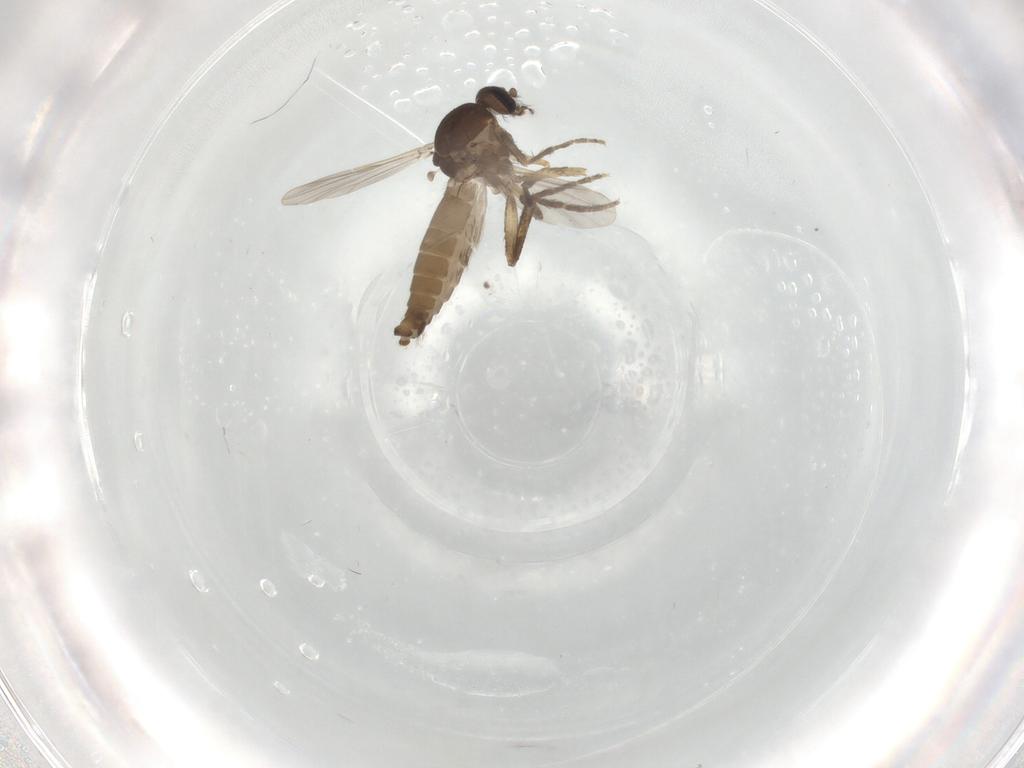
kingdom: Animalia
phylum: Arthropoda
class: Insecta
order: Diptera
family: Ceratopogonidae
